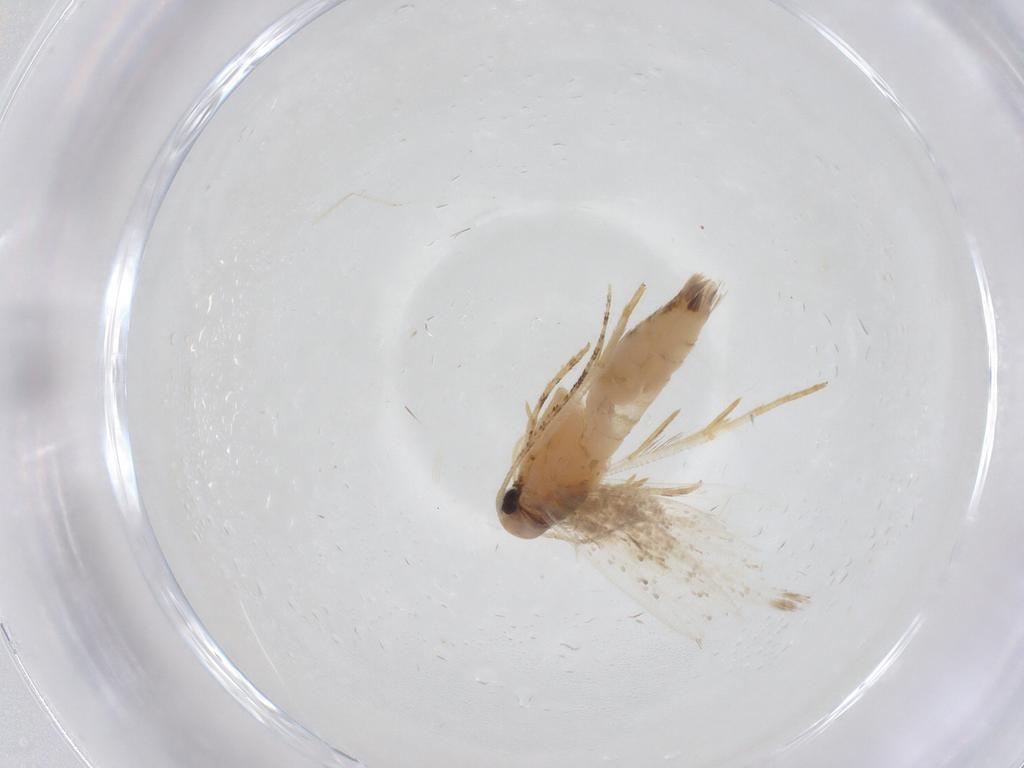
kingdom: Animalia
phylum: Arthropoda
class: Insecta
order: Lepidoptera
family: Gelechiidae
